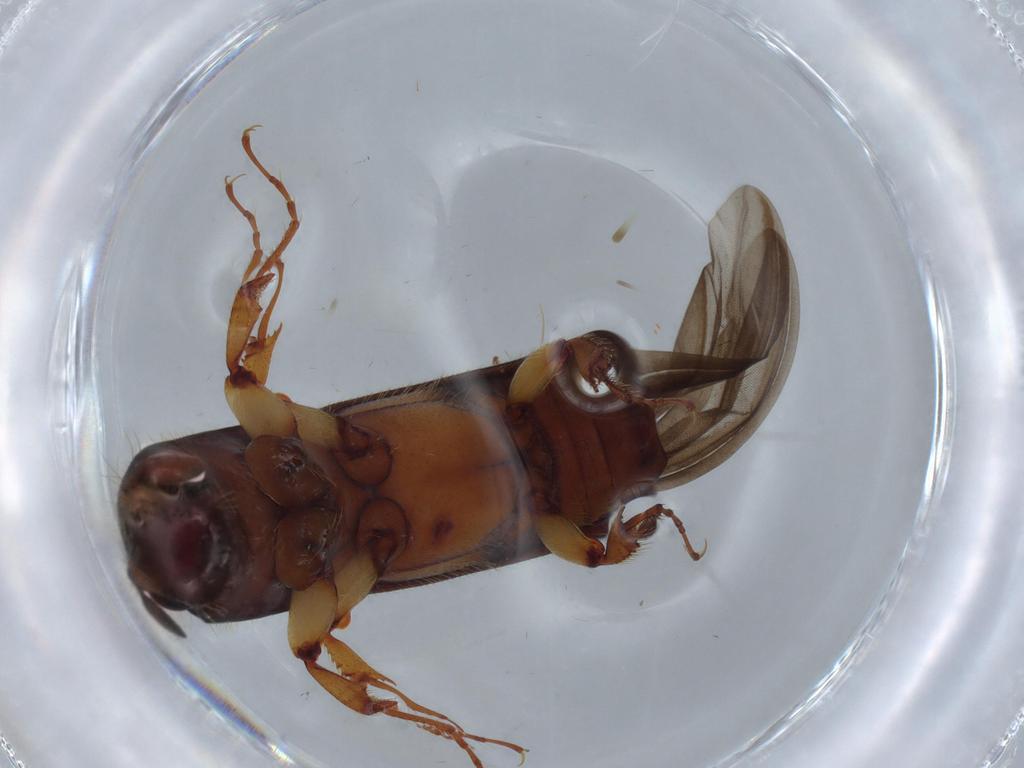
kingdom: Animalia
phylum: Arthropoda
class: Insecta
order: Coleoptera
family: Curculionidae
